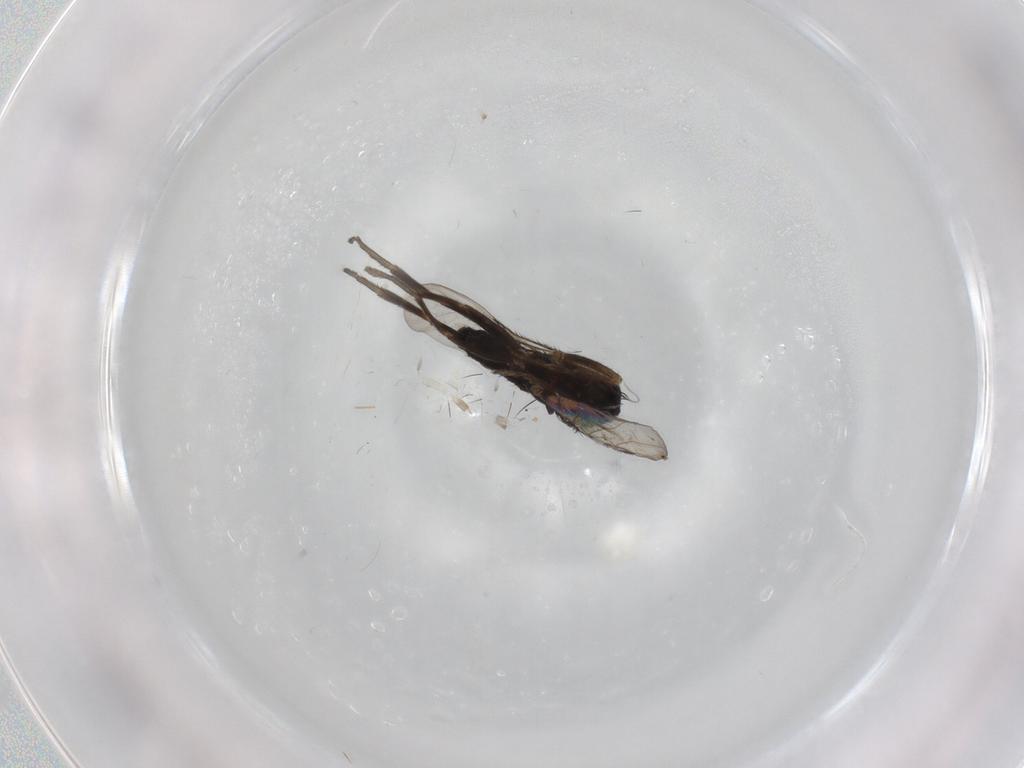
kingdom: Animalia
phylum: Arthropoda
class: Insecta
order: Diptera
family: Phoridae
